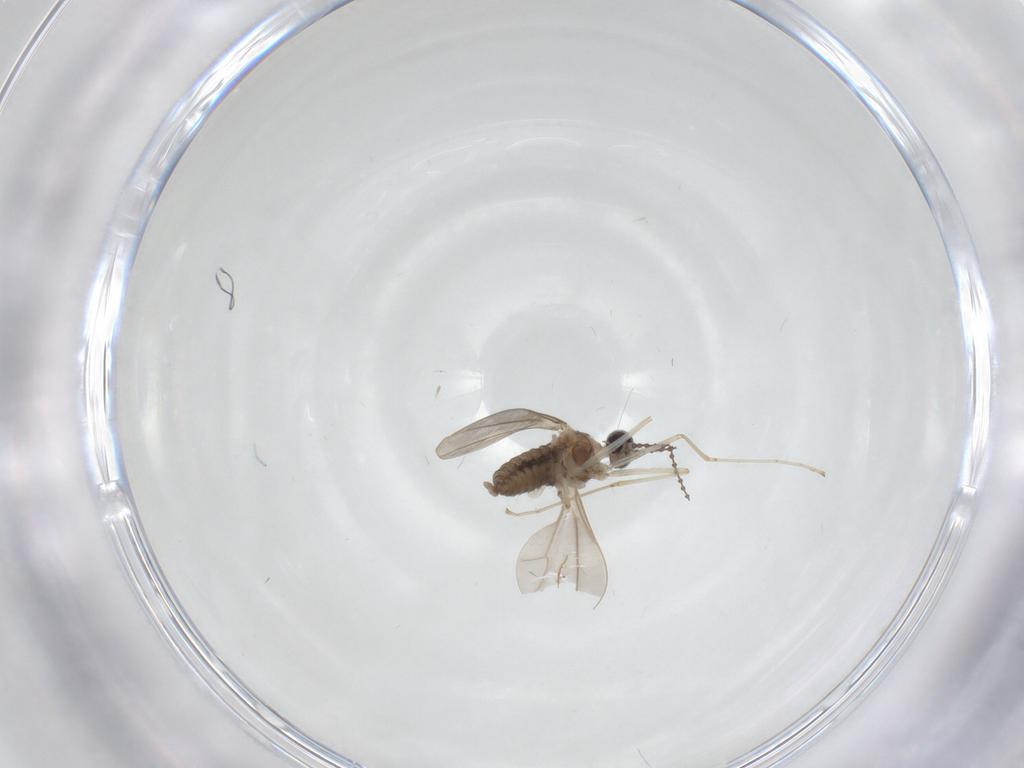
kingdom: Animalia
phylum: Arthropoda
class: Insecta
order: Diptera
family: Cecidomyiidae
